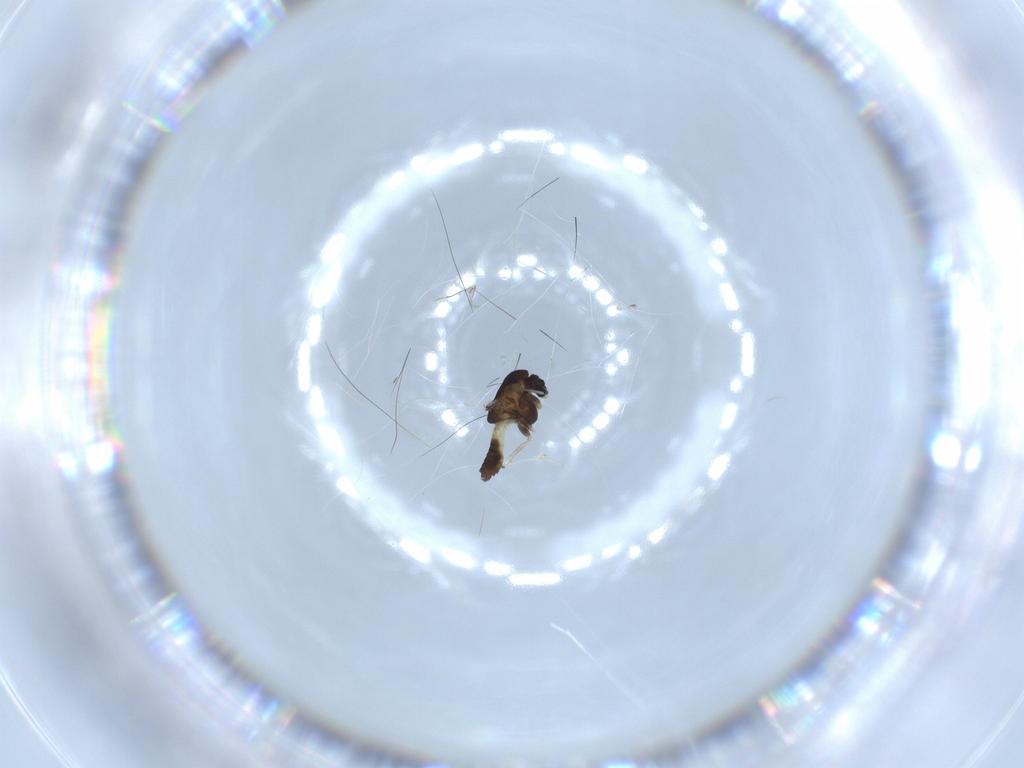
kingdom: Animalia
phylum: Arthropoda
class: Insecta
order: Diptera
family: Chironomidae
